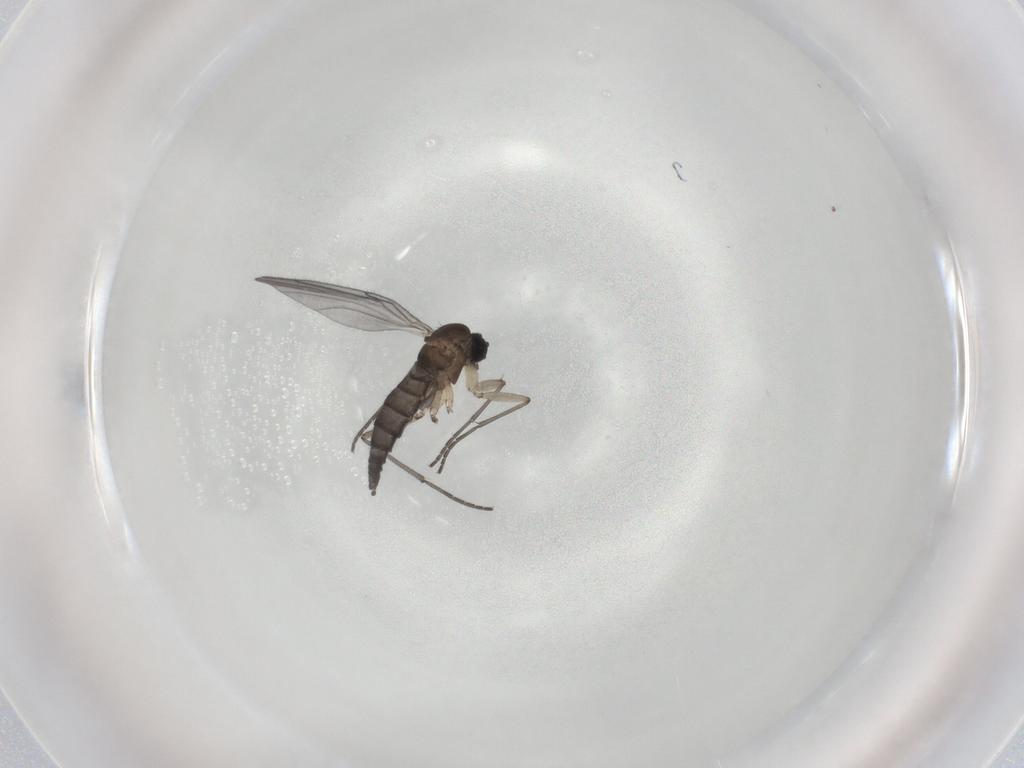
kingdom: Animalia
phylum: Arthropoda
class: Insecta
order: Diptera
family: Sciaridae
